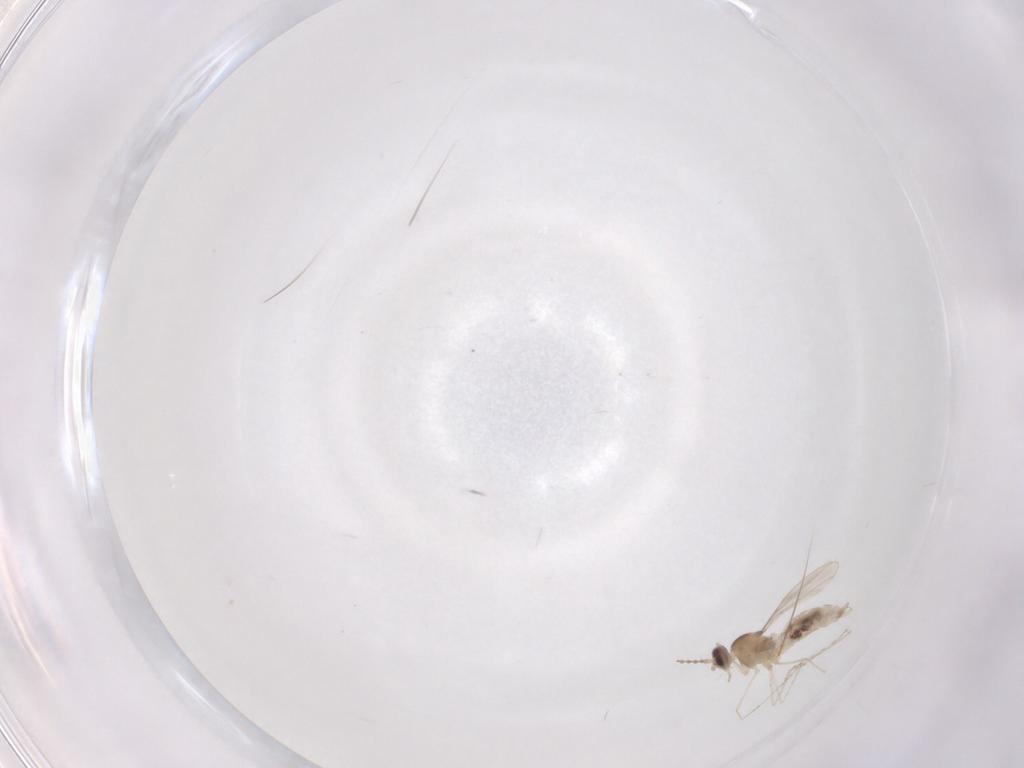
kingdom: Animalia
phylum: Arthropoda
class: Insecta
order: Diptera
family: Cecidomyiidae
